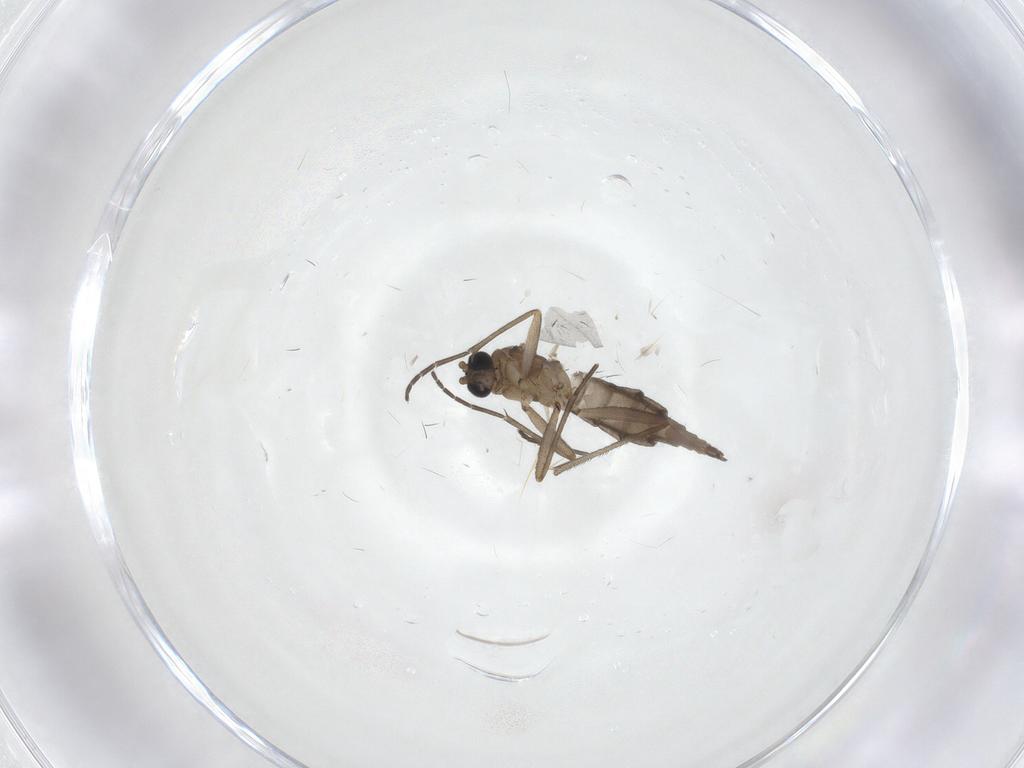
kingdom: Animalia
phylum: Arthropoda
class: Insecta
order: Diptera
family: Sciaridae
